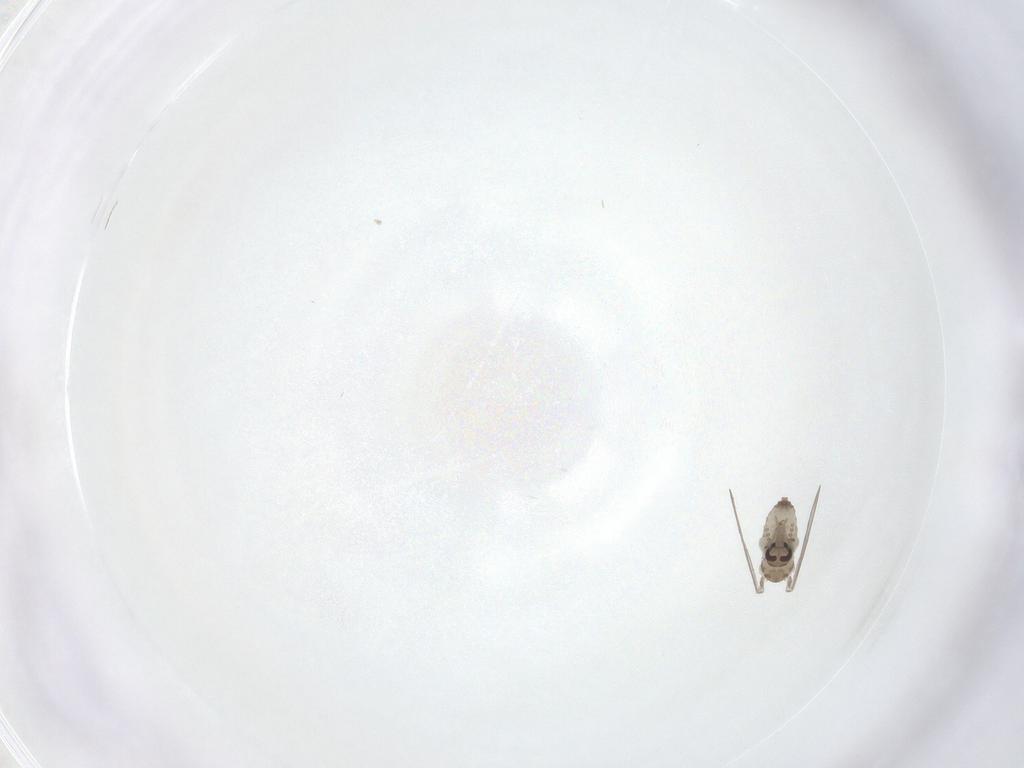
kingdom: Animalia
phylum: Arthropoda
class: Insecta
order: Diptera
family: Psychodidae
